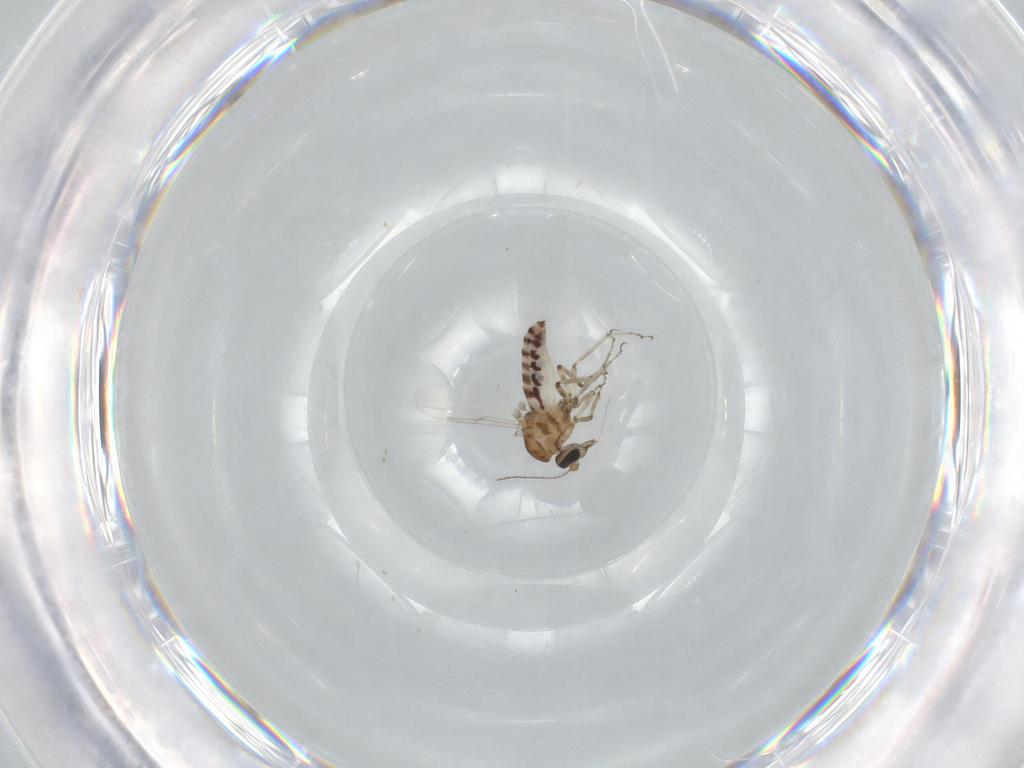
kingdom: Animalia
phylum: Arthropoda
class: Insecta
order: Diptera
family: Ceratopogonidae
